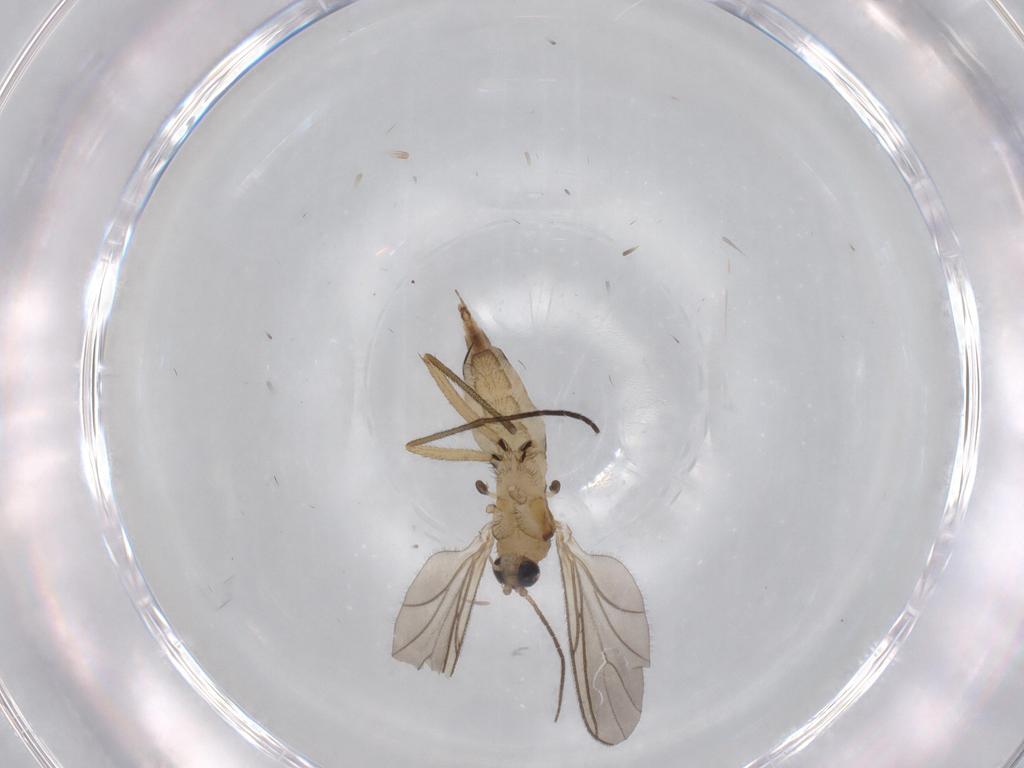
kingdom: Animalia
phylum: Arthropoda
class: Insecta
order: Diptera
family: Sciaridae
